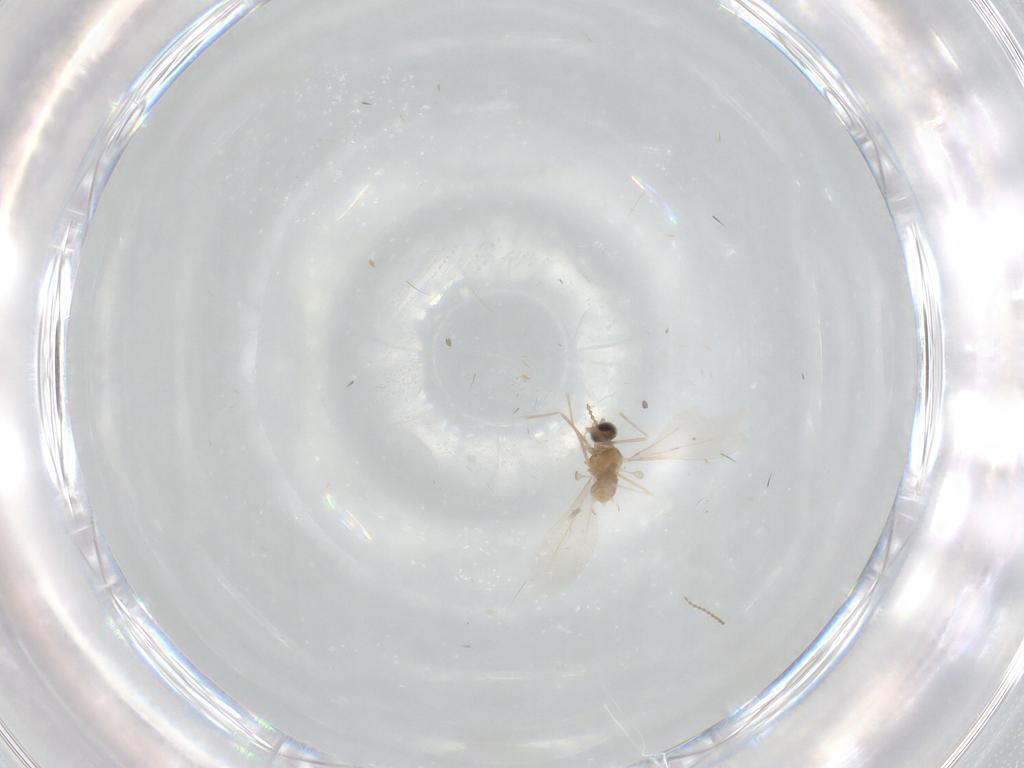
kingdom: Animalia
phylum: Arthropoda
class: Insecta
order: Diptera
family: Cecidomyiidae
